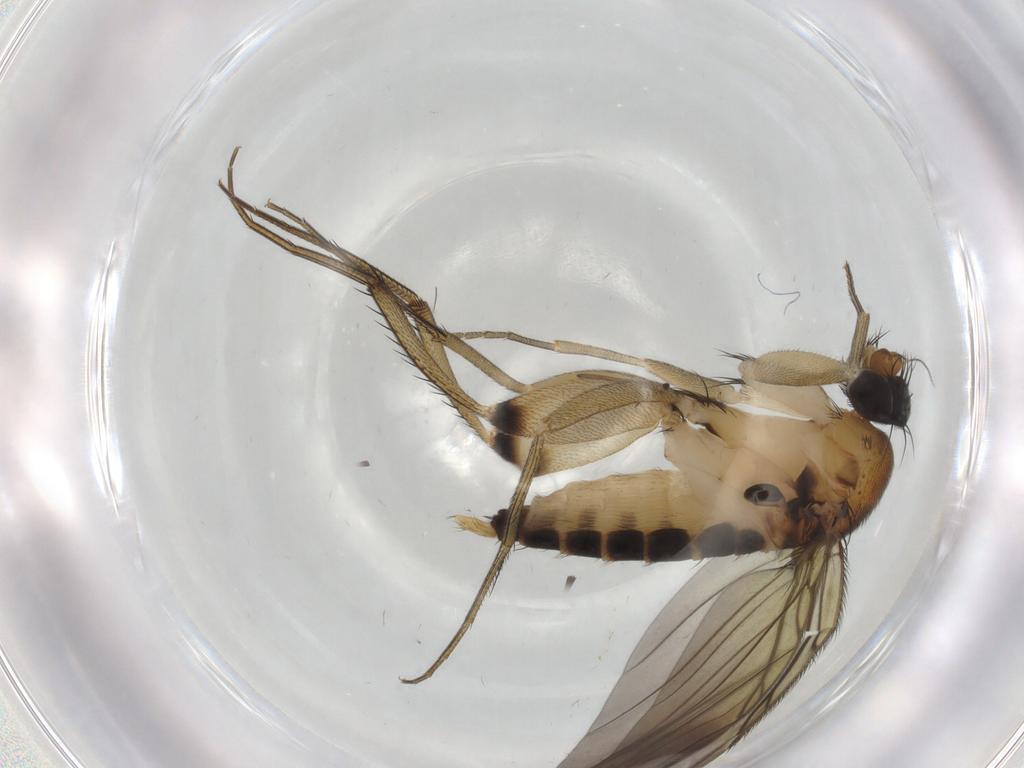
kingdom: Animalia
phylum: Arthropoda
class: Insecta
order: Diptera
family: Phoridae
